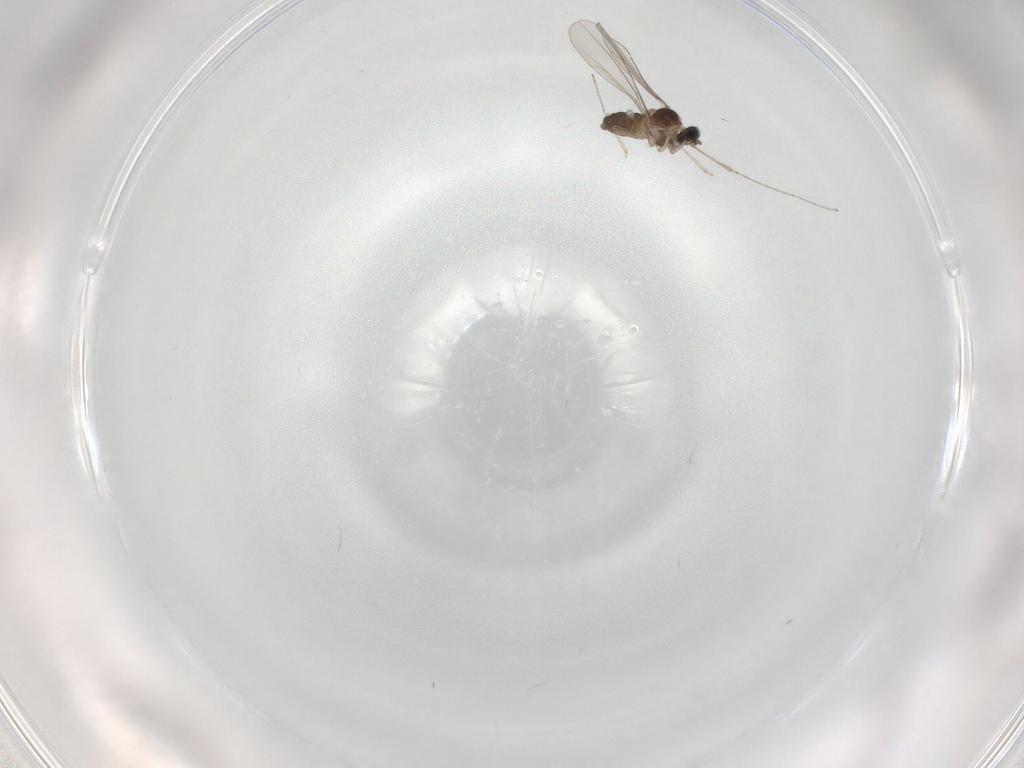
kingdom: Animalia
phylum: Arthropoda
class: Insecta
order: Diptera
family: Cecidomyiidae
